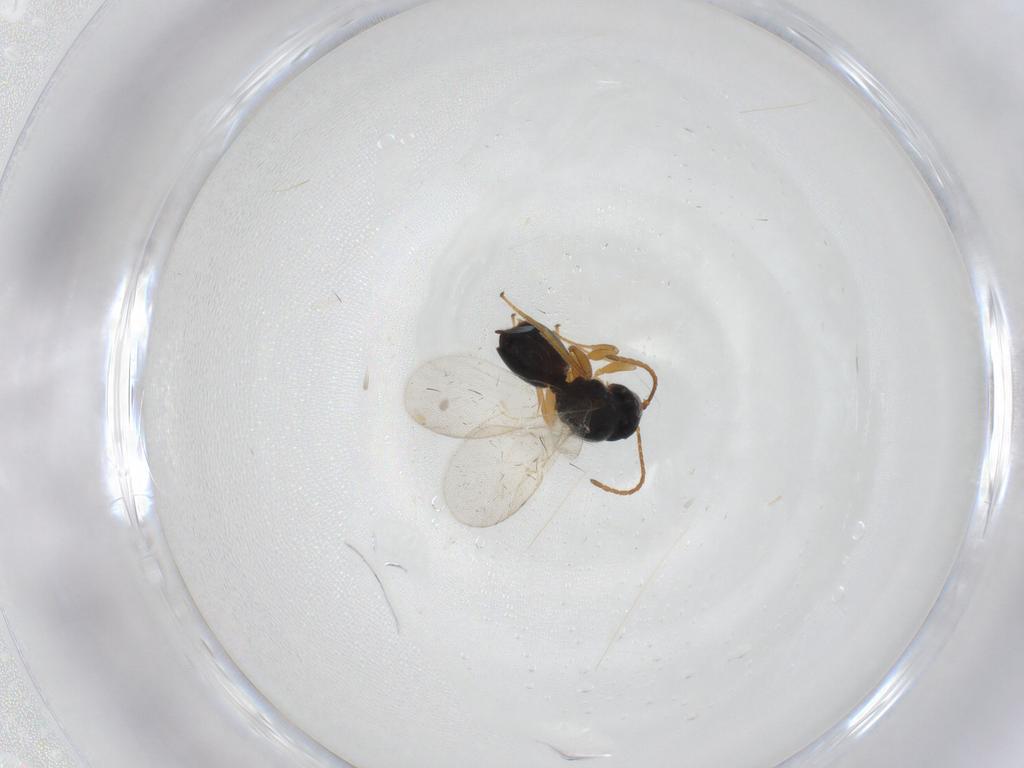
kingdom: Animalia
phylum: Arthropoda
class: Insecta
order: Hymenoptera
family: Cynipidae
